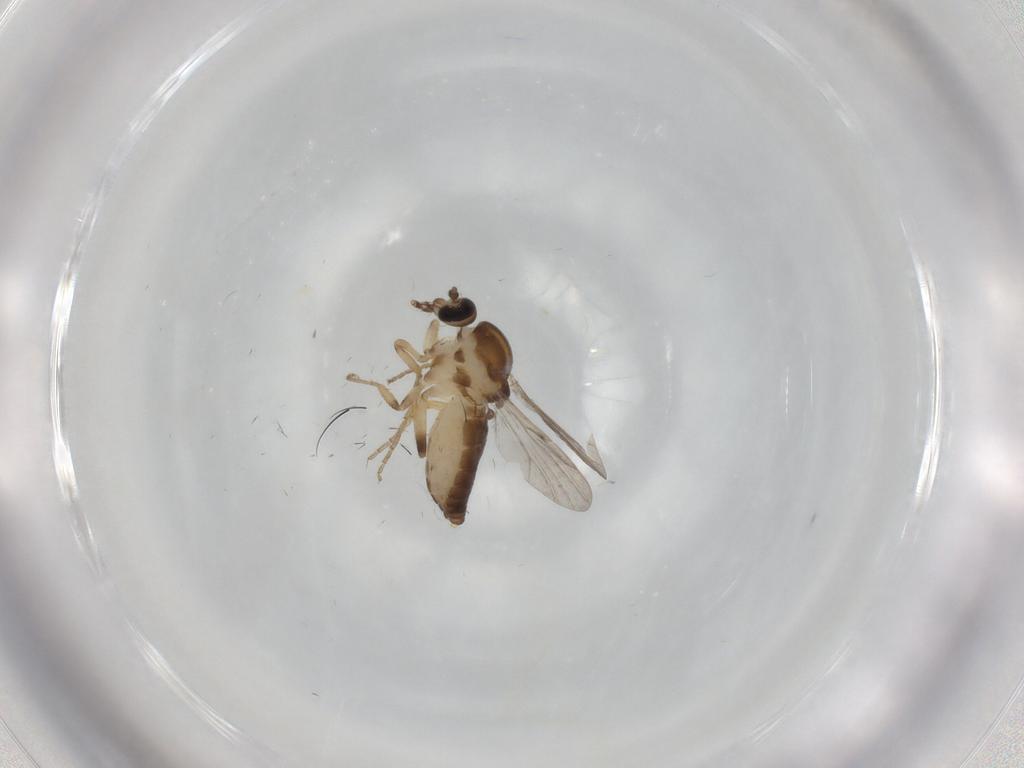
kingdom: Animalia
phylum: Arthropoda
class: Insecta
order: Diptera
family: Ceratopogonidae
